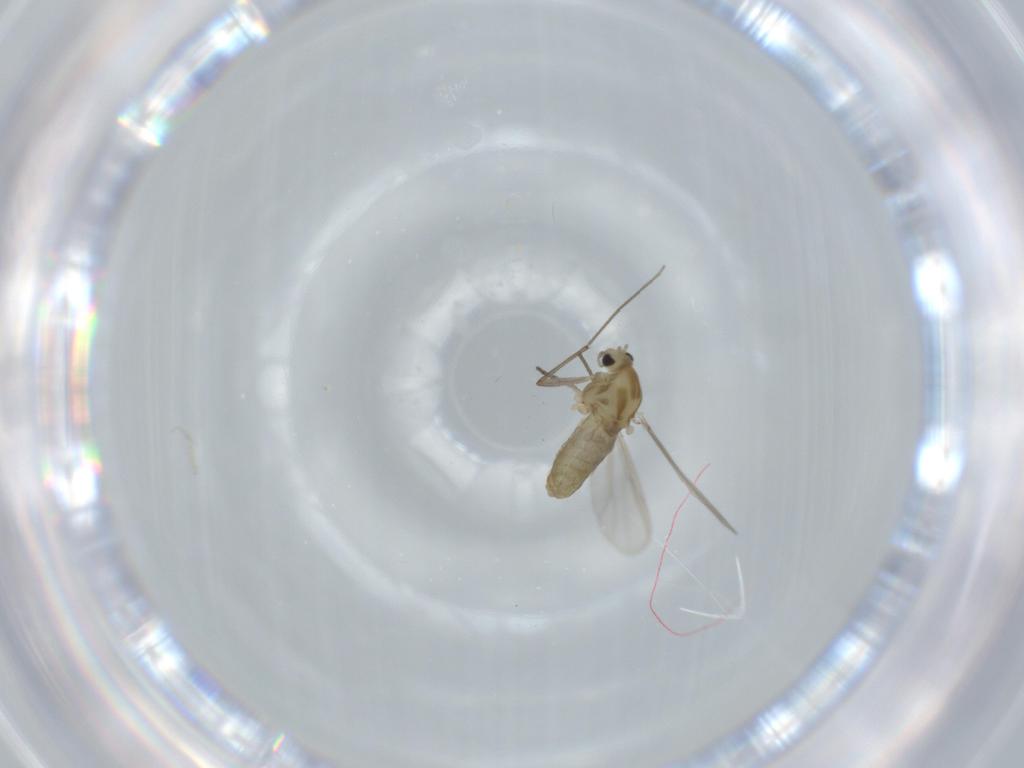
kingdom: Animalia
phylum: Arthropoda
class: Insecta
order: Diptera
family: Chironomidae
